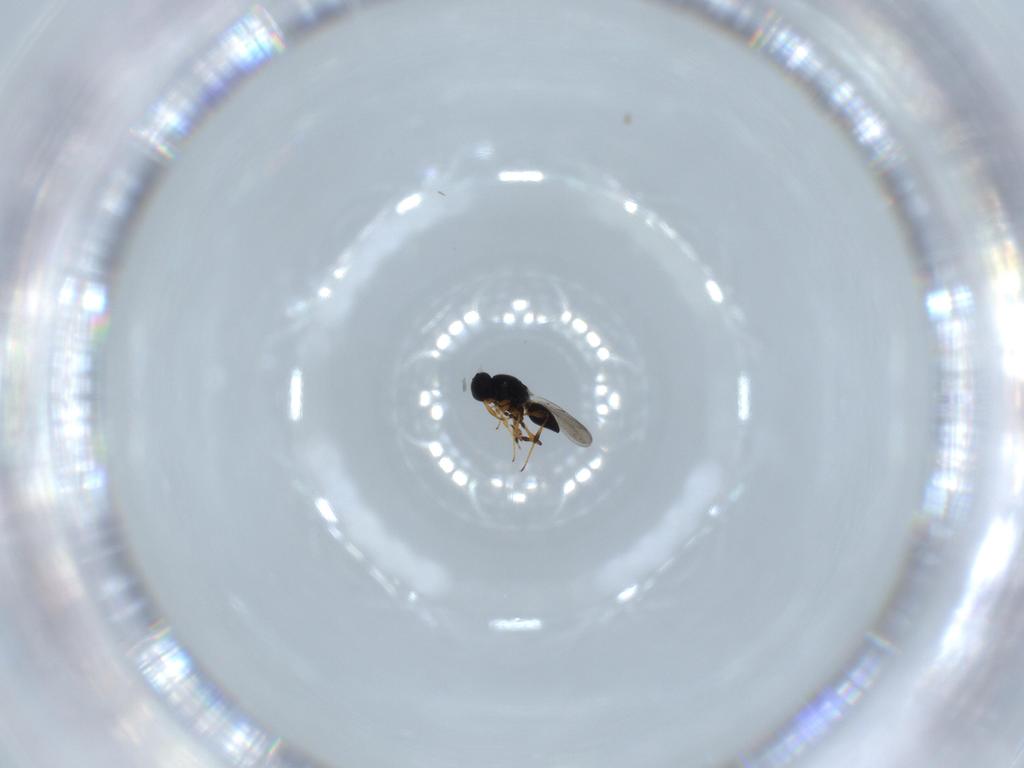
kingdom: Animalia
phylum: Arthropoda
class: Insecta
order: Hymenoptera
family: Platygastridae
